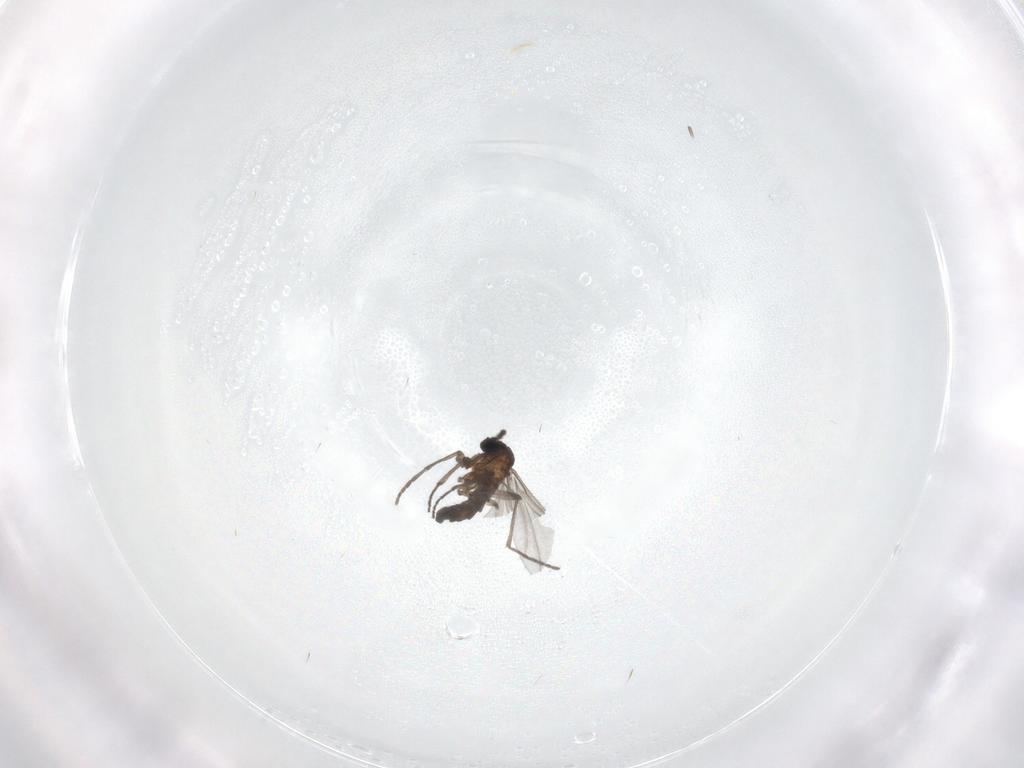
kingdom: Animalia
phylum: Arthropoda
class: Insecta
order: Diptera
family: Sciaridae
